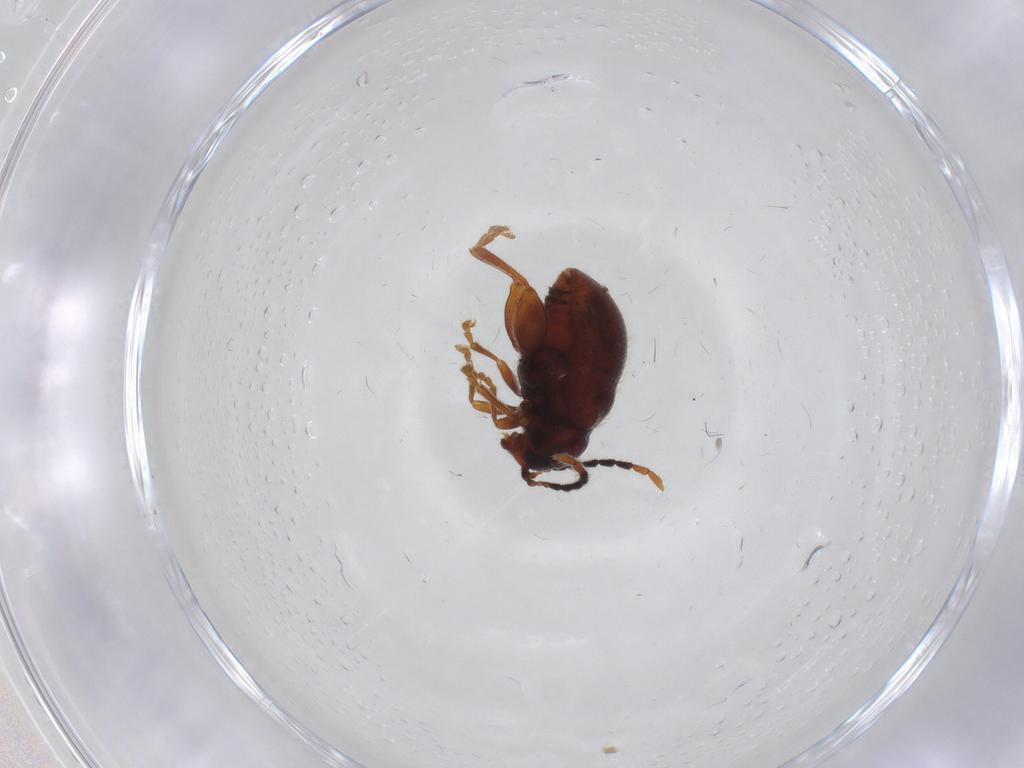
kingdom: Animalia
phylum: Arthropoda
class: Insecta
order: Coleoptera
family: Chrysomelidae
